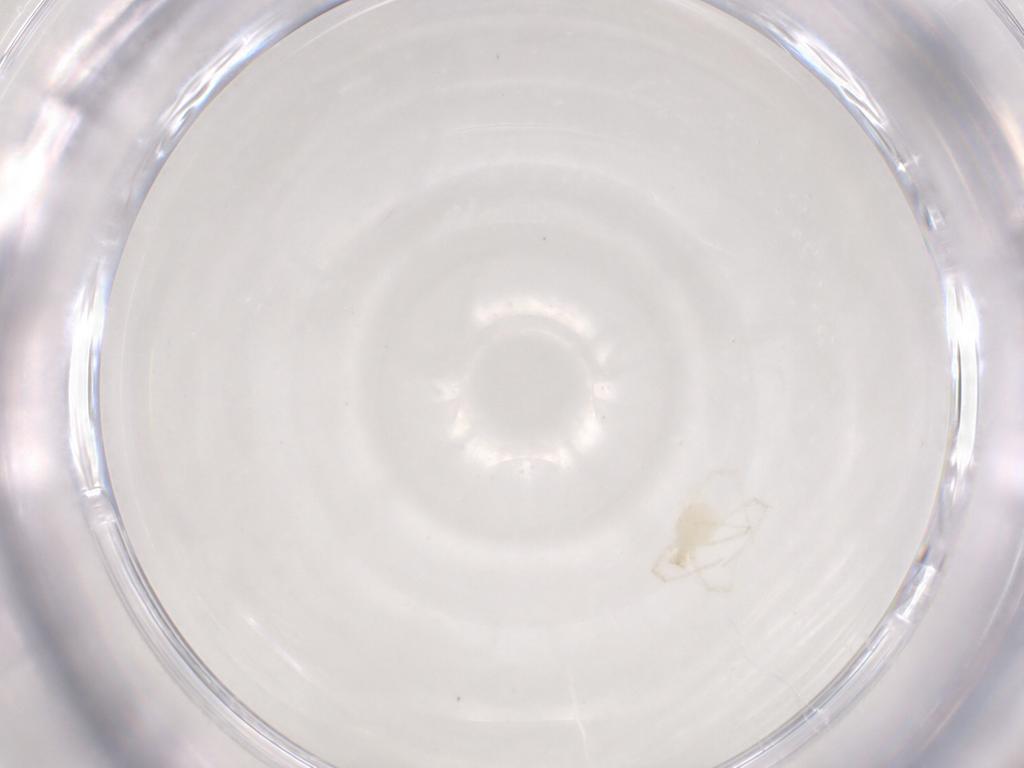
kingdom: Animalia
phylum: Arthropoda
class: Arachnida
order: Trombidiformes
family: Erythraeidae
